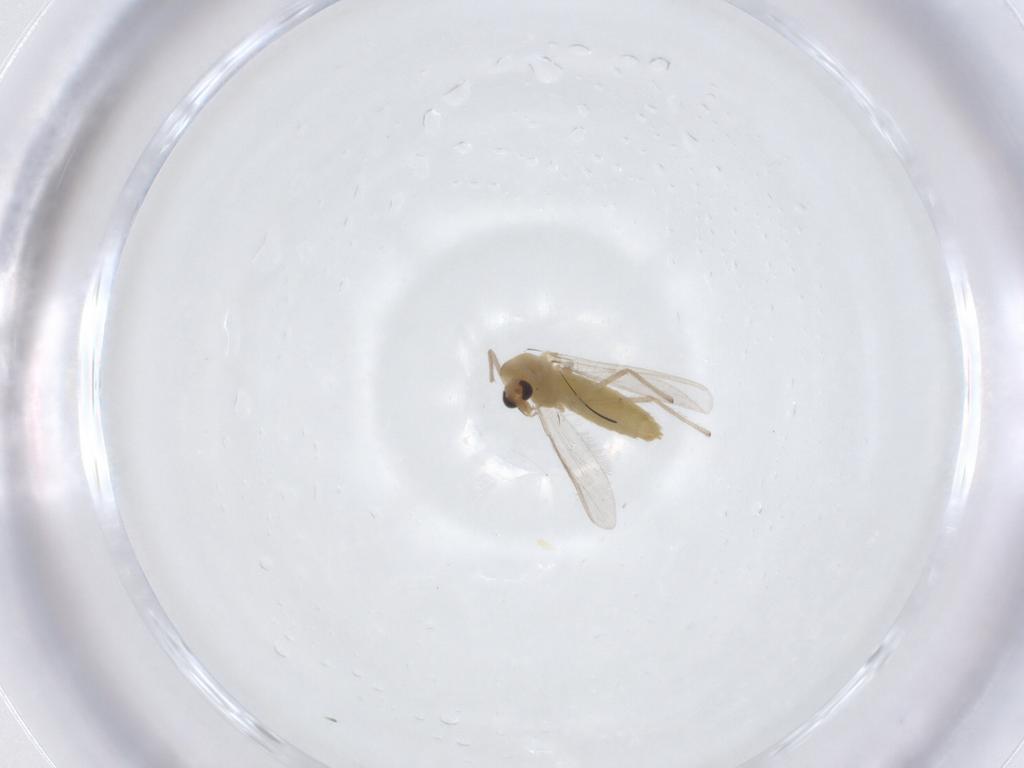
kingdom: Animalia
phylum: Arthropoda
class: Insecta
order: Diptera
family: Chironomidae
